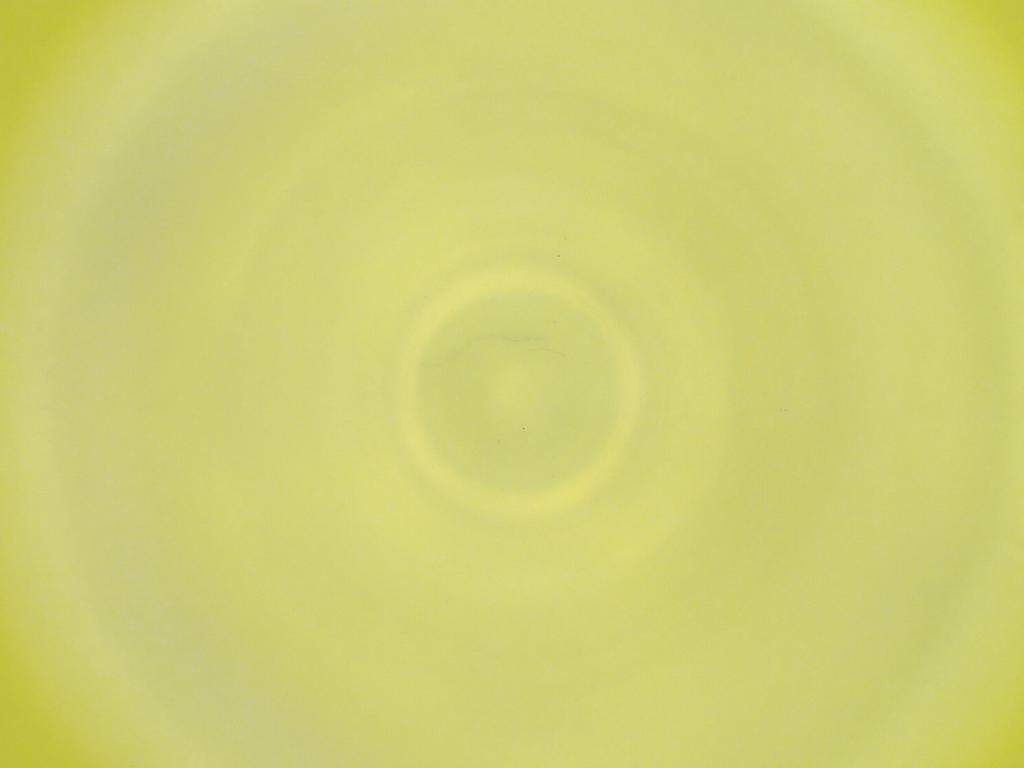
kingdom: Animalia
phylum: Arthropoda
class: Insecta
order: Diptera
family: Cecidomyiidae
